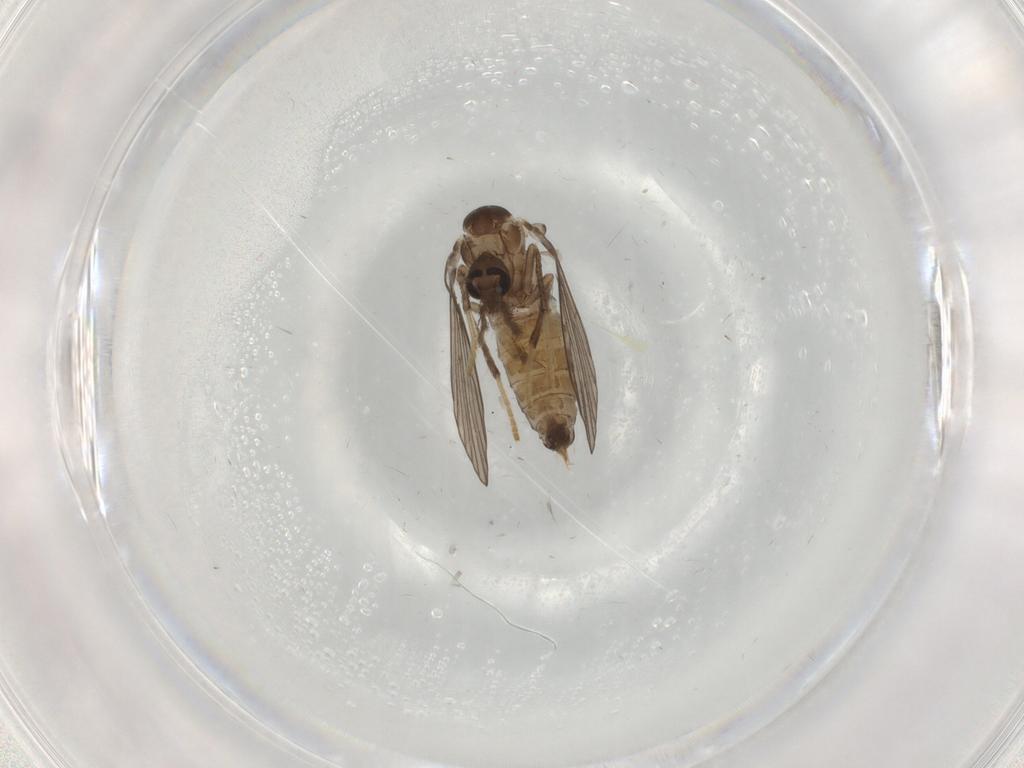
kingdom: Animalia
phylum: Arthropoda
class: Insecta
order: Diptera
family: Psychodidae
